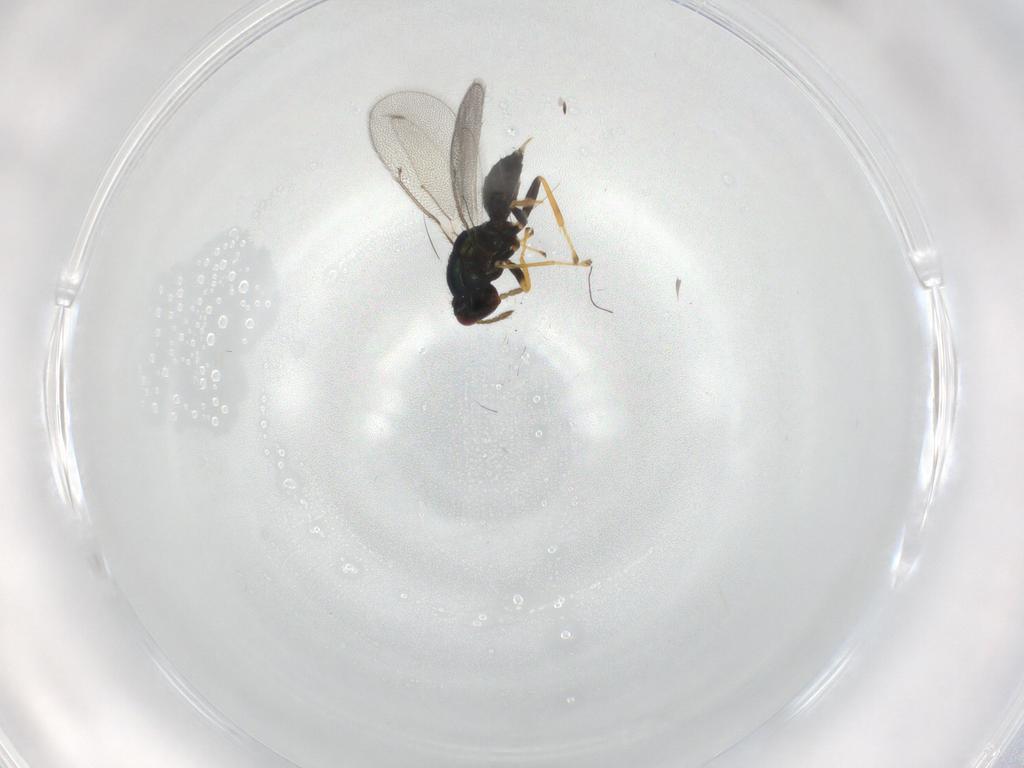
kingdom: Animalia
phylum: Arthropoda
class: Insecta
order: Hymenoptera
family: Eulophidae
